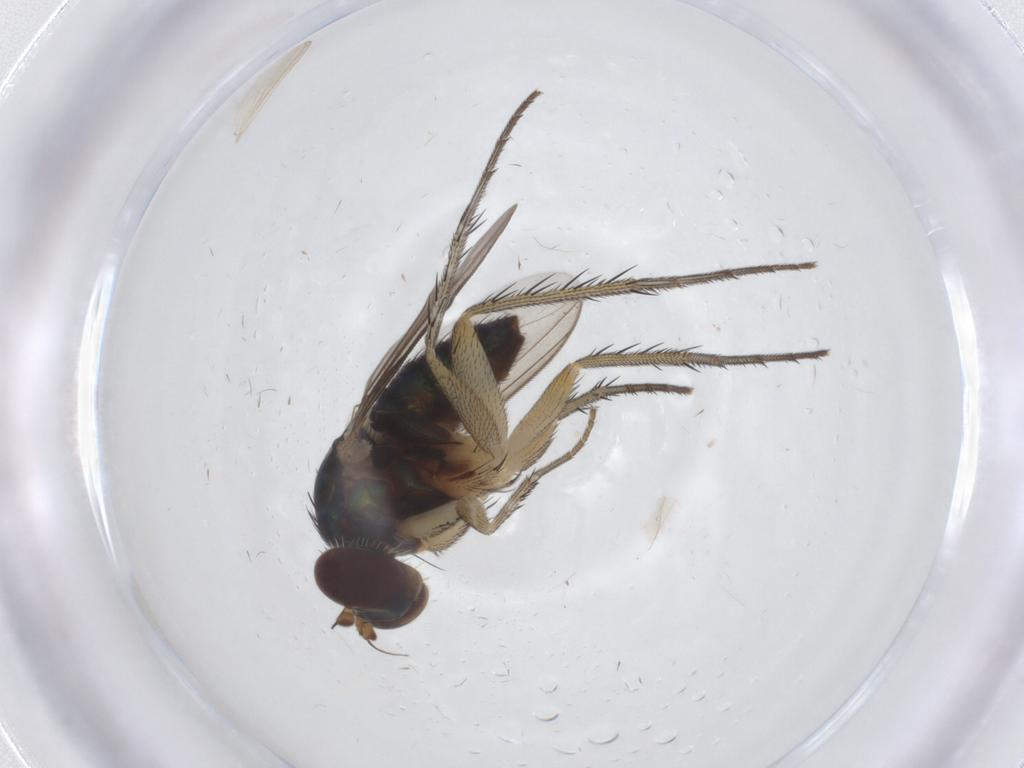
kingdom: Animalia
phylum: Arthropoda
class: Insecta
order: Diptera
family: Dolichopodidae
